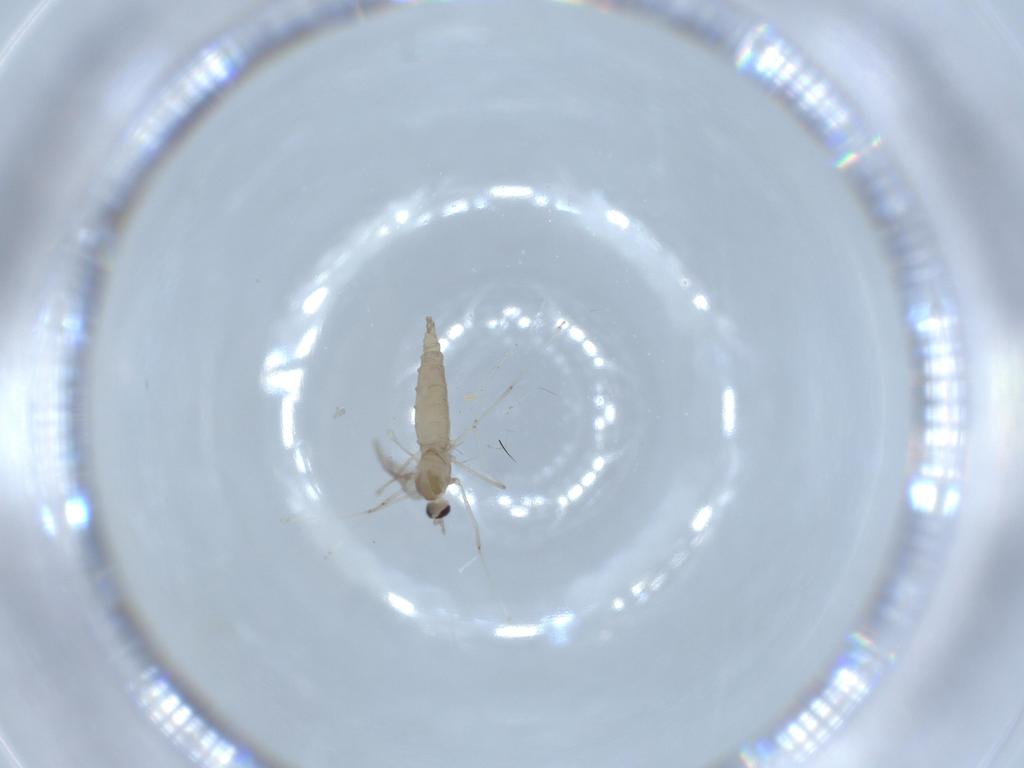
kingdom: Animalia
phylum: Arthropoda
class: Insecta
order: Diptera
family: Cecidomyiidae
